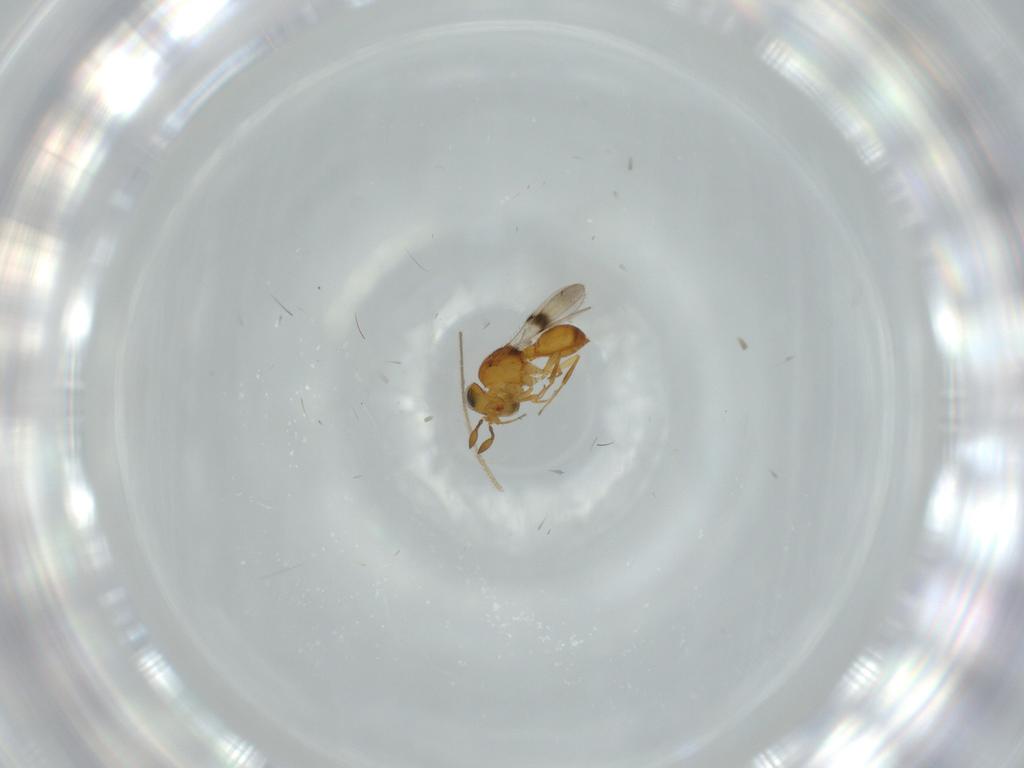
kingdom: Animalia
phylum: Arthropoda
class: Insecta
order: Hymenoptera
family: Scelionidae
